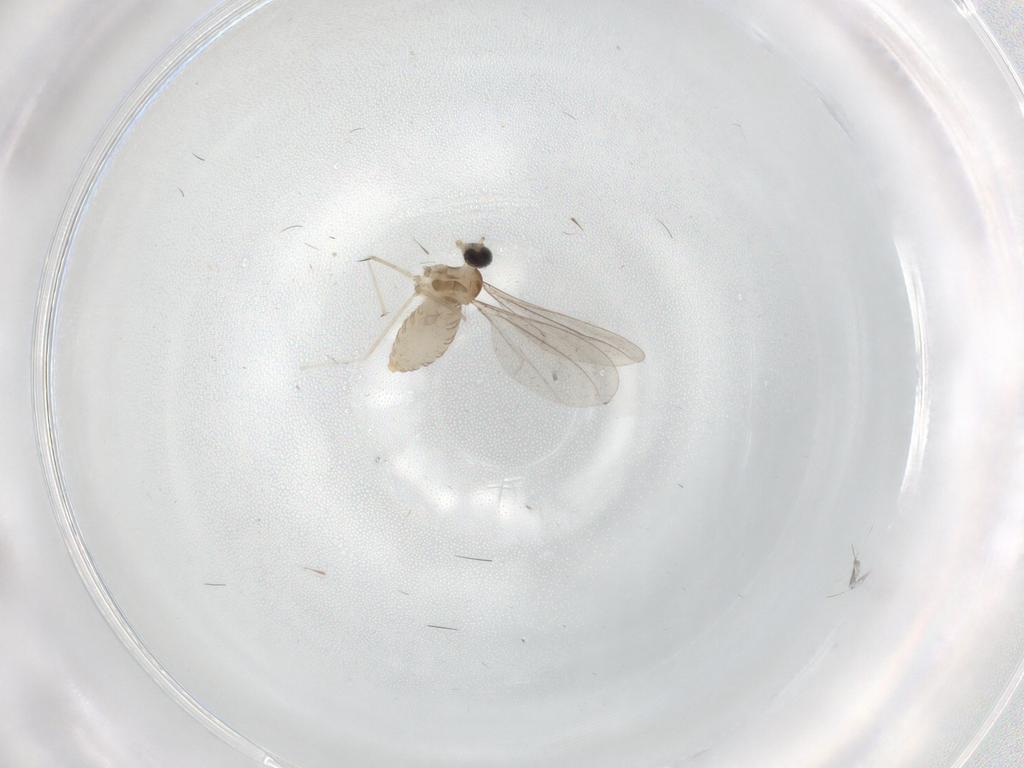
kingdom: Animalia
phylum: Arthropoda
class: Insecta
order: Diptera
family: Cecidomyiidae
